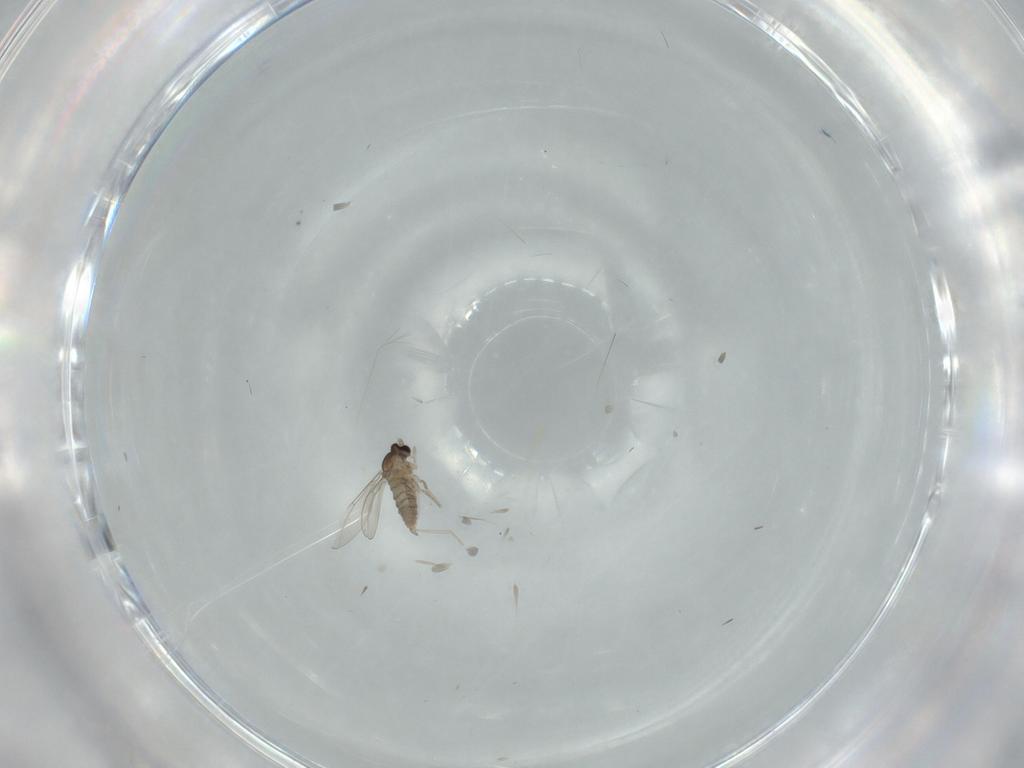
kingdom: Animalia
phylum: Arthropoda
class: Insecta
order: Diptera
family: Cecidomyiidae
